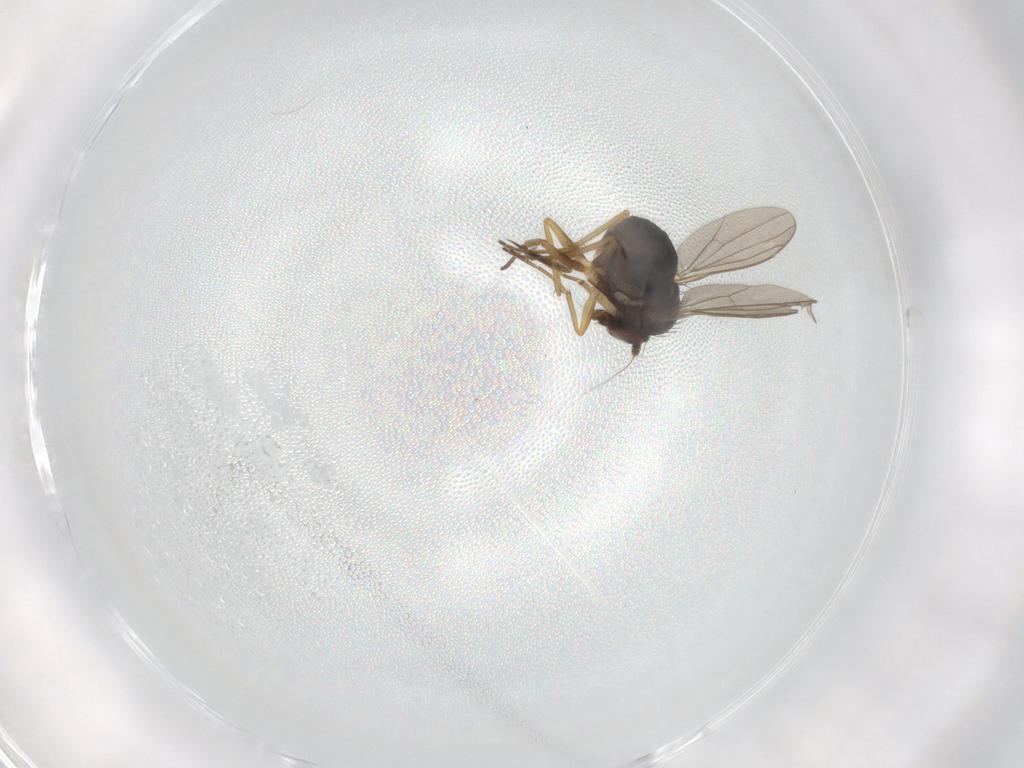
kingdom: Animalia
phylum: Arthropoda
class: Insecta
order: Diptera
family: Dolichopodidae
